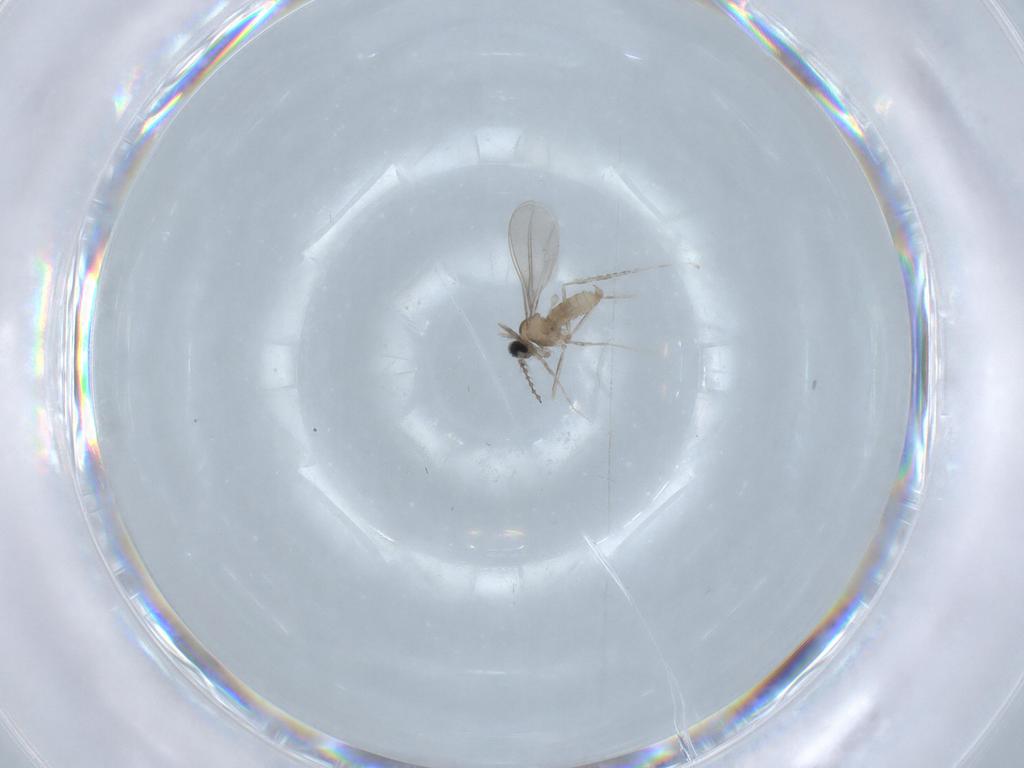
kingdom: Animalia
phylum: Arthropoda
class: Insecta
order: Diptera
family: Cecidomyiidae
